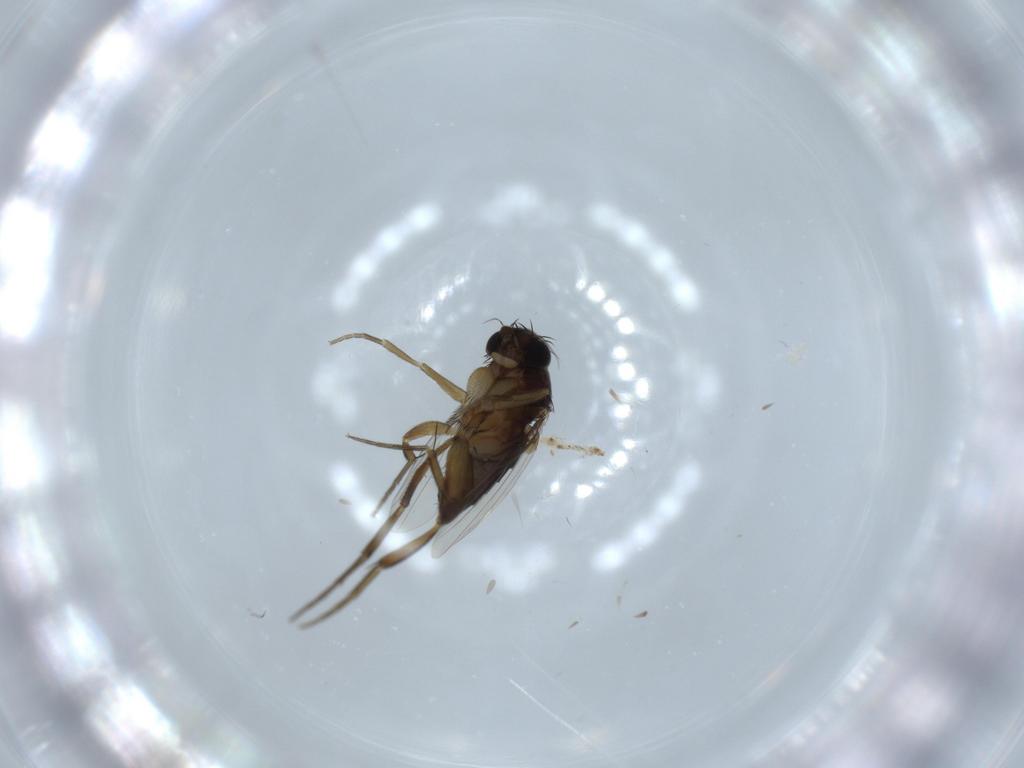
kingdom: Animalia
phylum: Arthropoda
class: Insecta
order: Diptera
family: Phoridae
